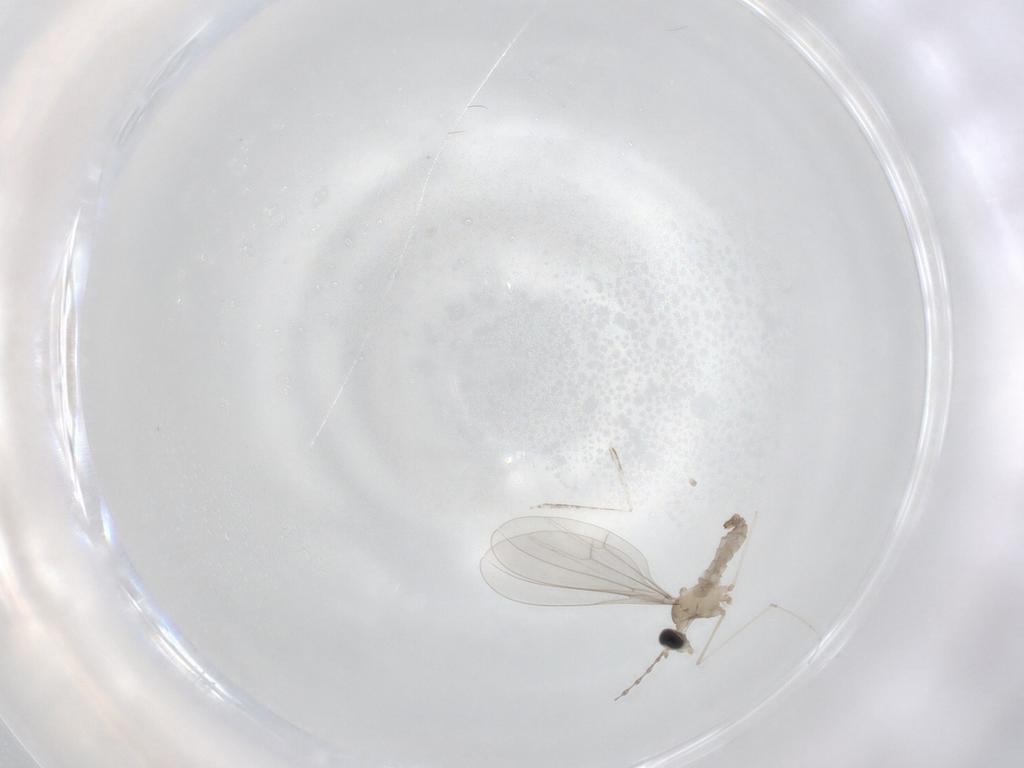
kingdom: Animalia
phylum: Arthropoda
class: Insecta
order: Diptera
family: Cecidomyiidae
